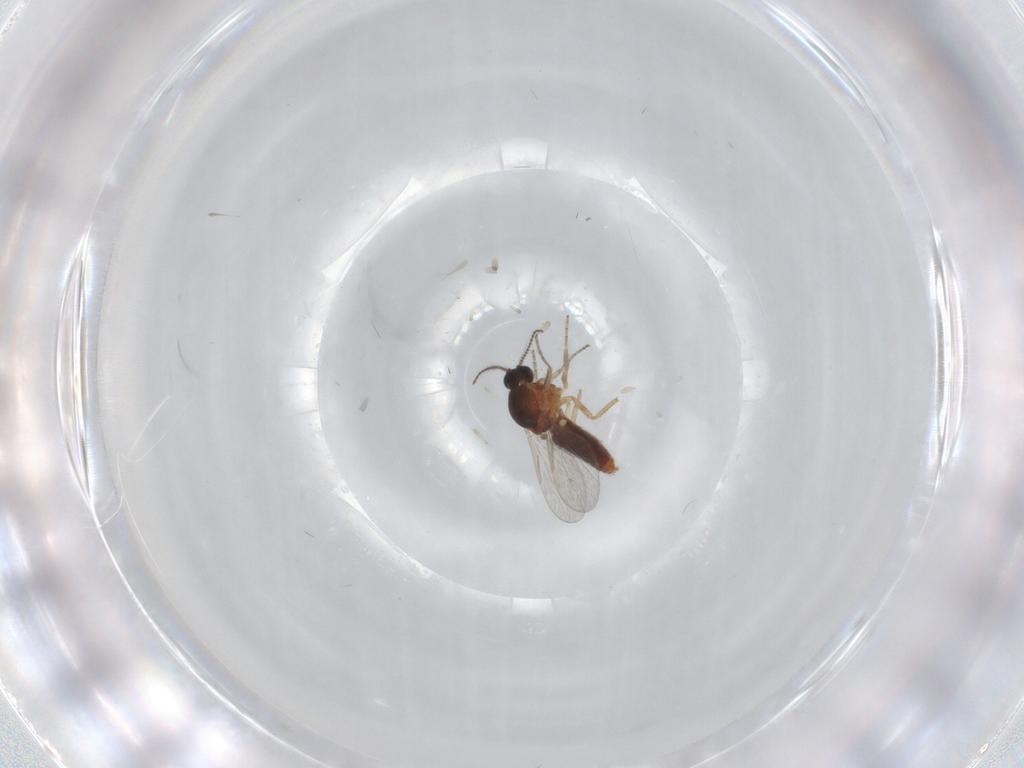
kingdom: Animalia
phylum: Arthropoda
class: Insecta
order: Diptera
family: Ceratopogonidae
